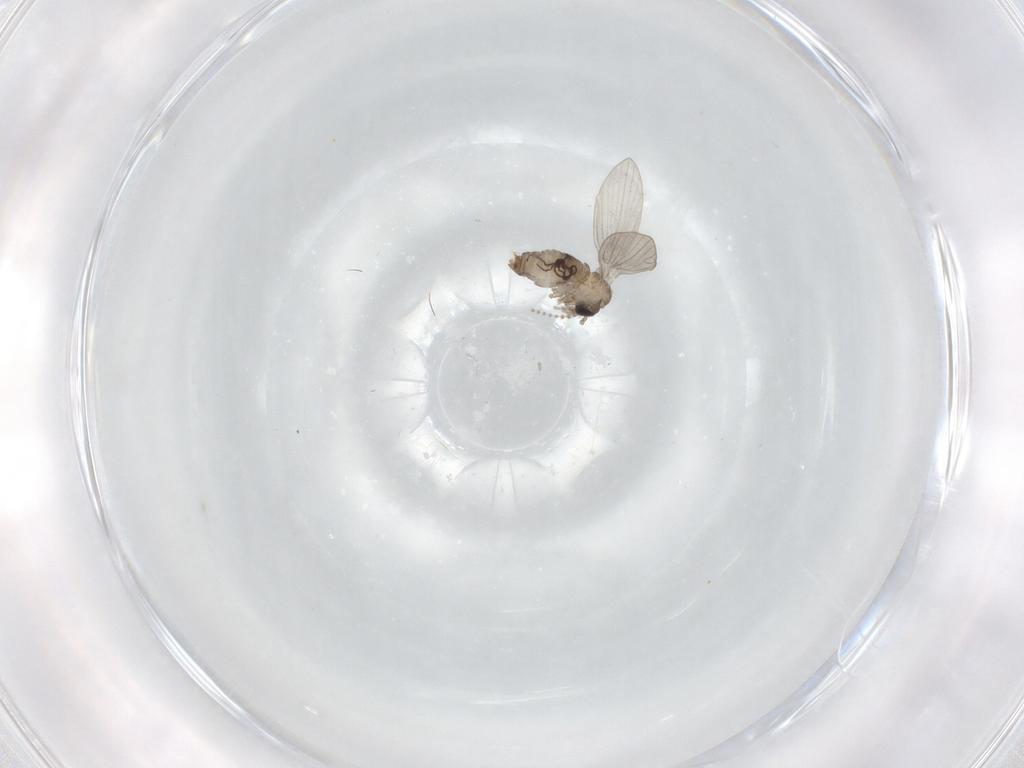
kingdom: Animalia
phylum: Arthropoda
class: Insecta
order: Diptera
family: Psychodidae
